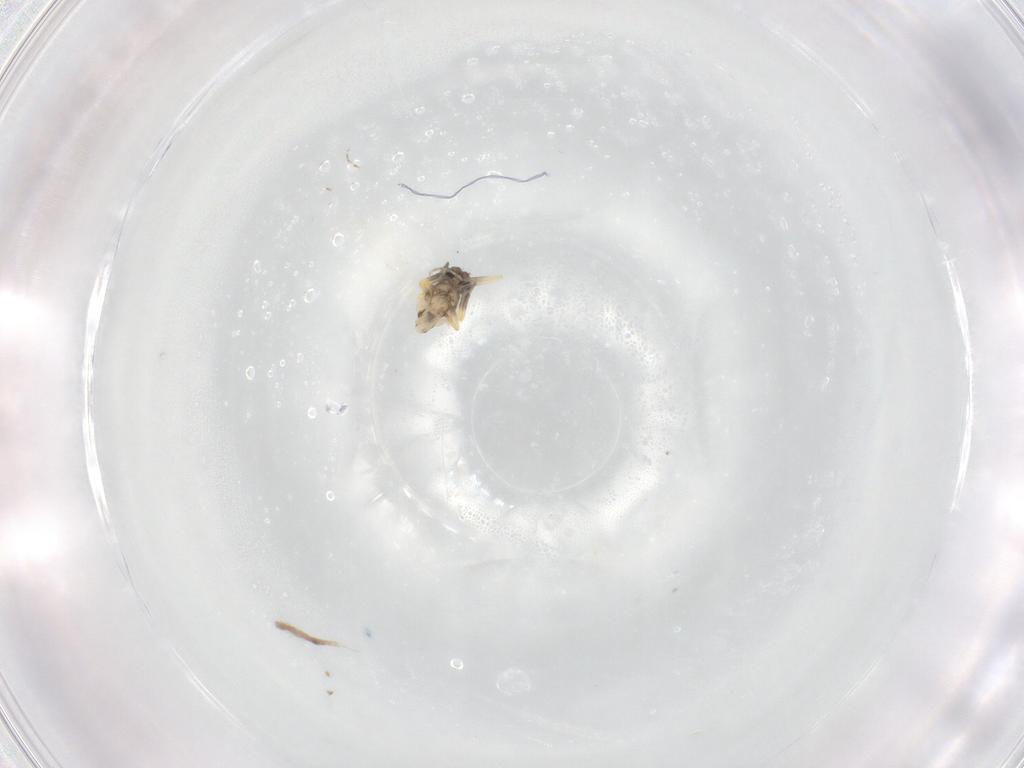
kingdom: Animalia
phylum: Arthropoda
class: Insecta
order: Diptera
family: Ceratopogonidae
